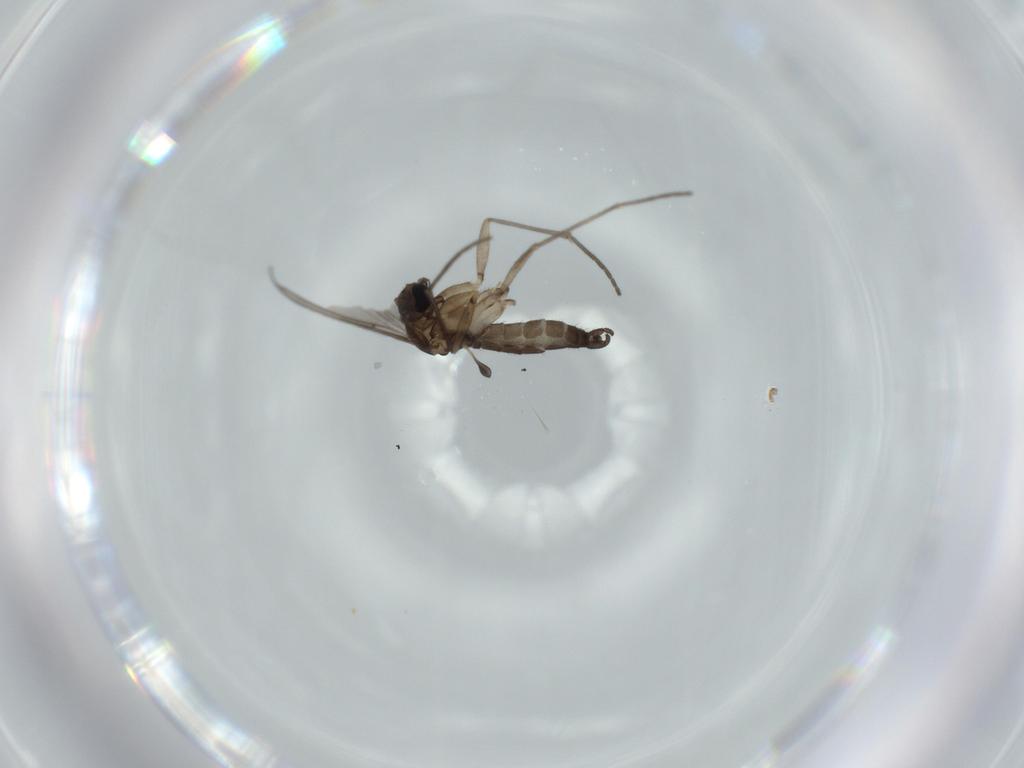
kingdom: Animalia
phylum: Arthropoda
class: Insecta
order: Diptera
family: Sciaridae
